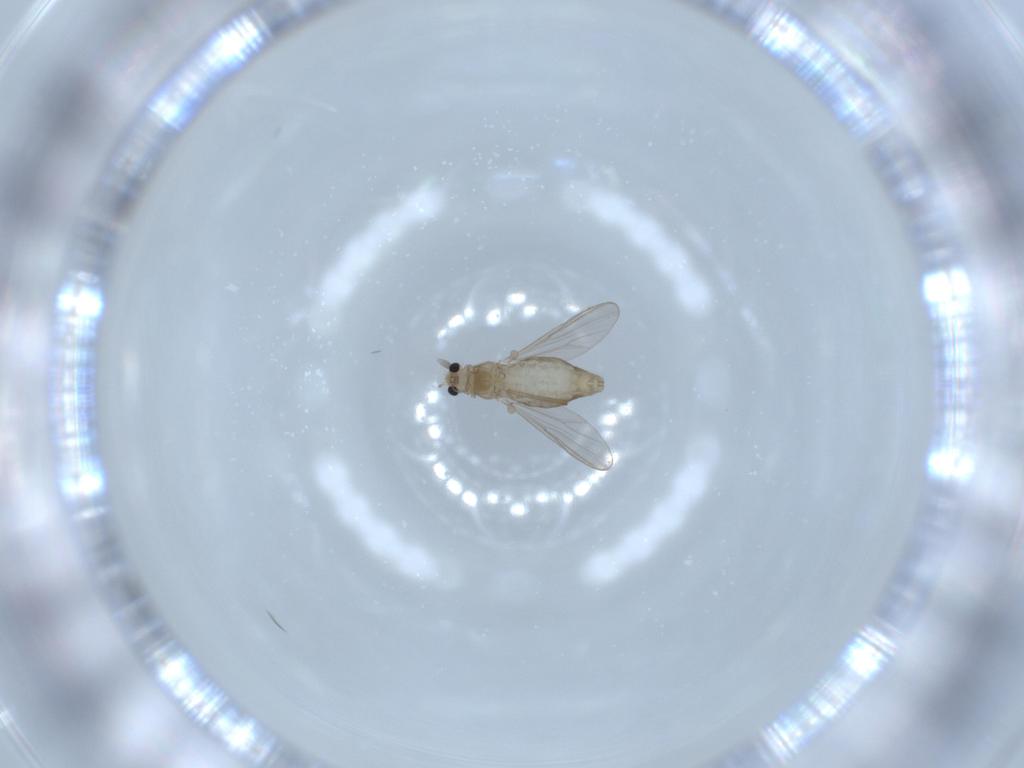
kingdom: Animalia
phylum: Arthropoda
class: Insecta
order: Diptera
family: Chironomidae
